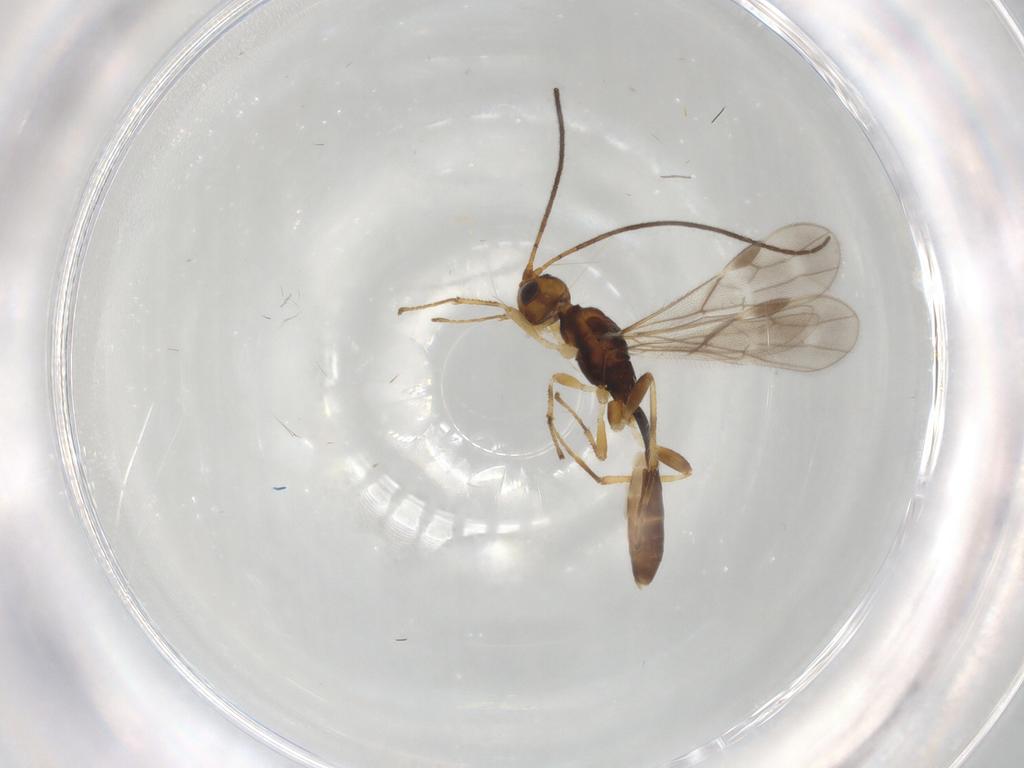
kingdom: Animalia
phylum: Arthropoda
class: Insecta
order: Hymenoptera
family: Braconidae
